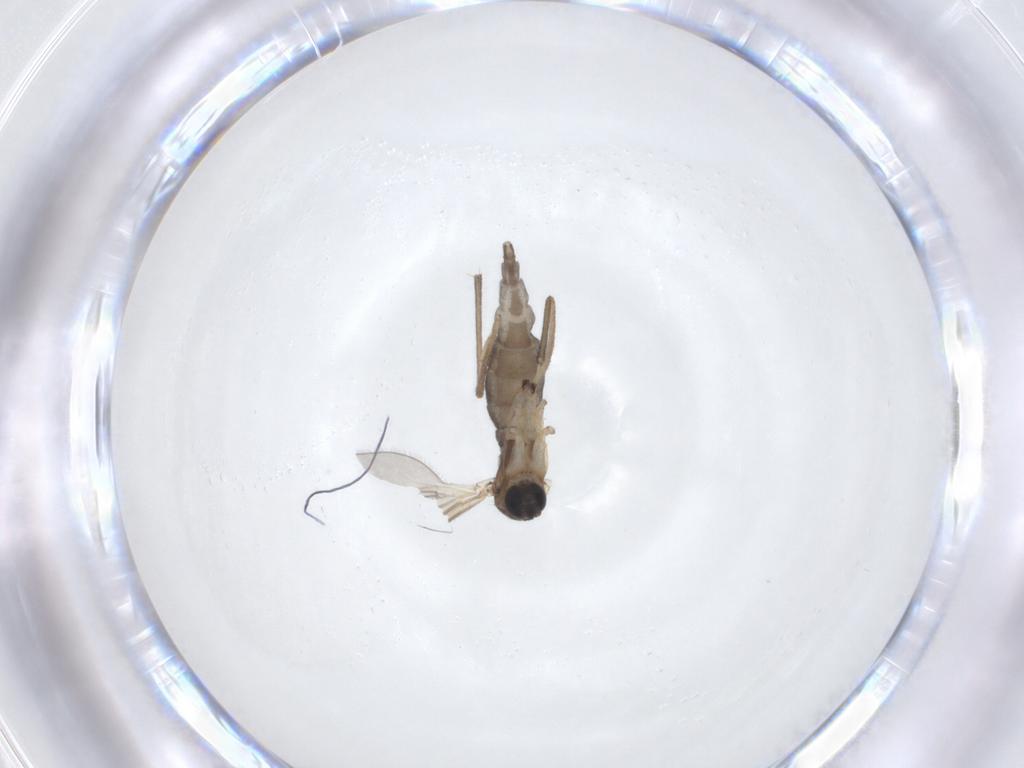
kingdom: Animalia
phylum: Arthropoda
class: Insecta
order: Diptera
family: Sciaridae
